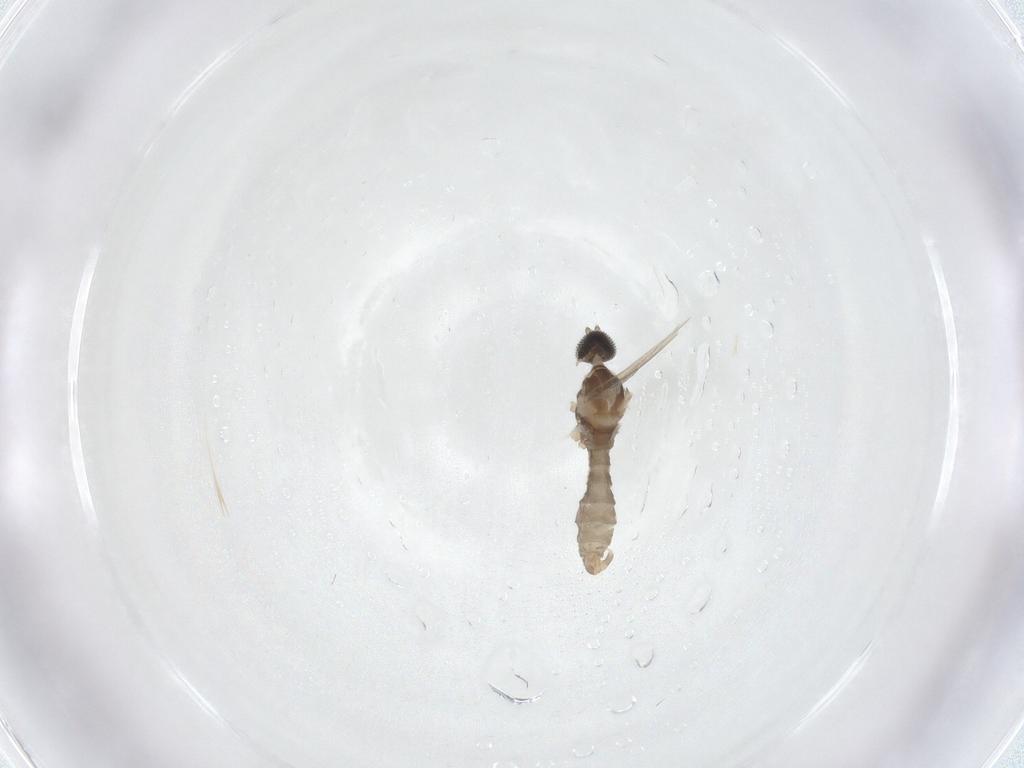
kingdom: Animalia
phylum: Arthropoda
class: Insecta
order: Diptera
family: Cecidomyiidae
